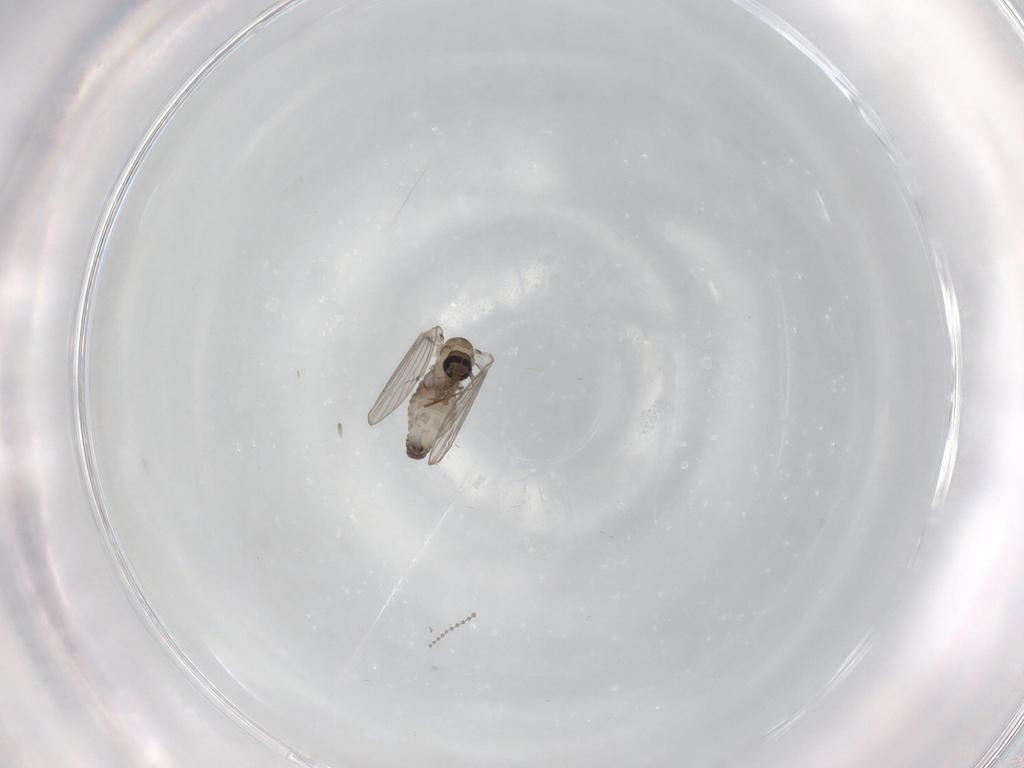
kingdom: Animalia
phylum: Arthropoda
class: Insecta
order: Diptera
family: Psychodidae
